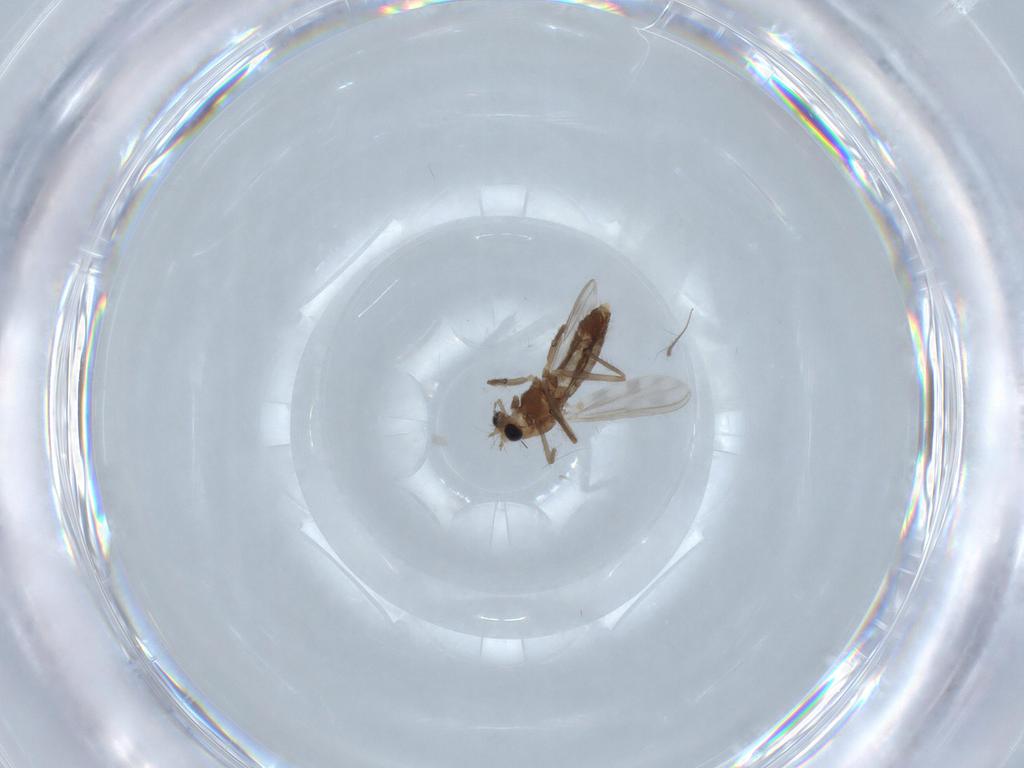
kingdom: Animalia
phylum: Arthropoda
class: Insecta
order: Diptera
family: Chironomidae
